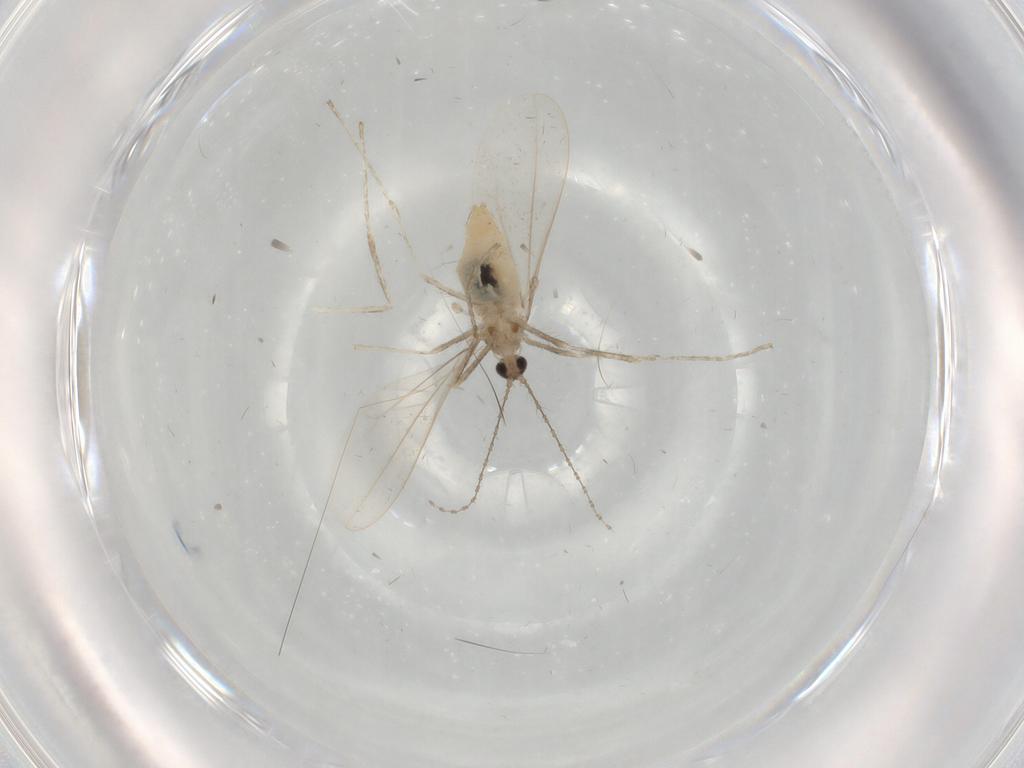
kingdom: Animalia
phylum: Arthropoda
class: Insecta
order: Diptera
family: Cecidomyiidae
